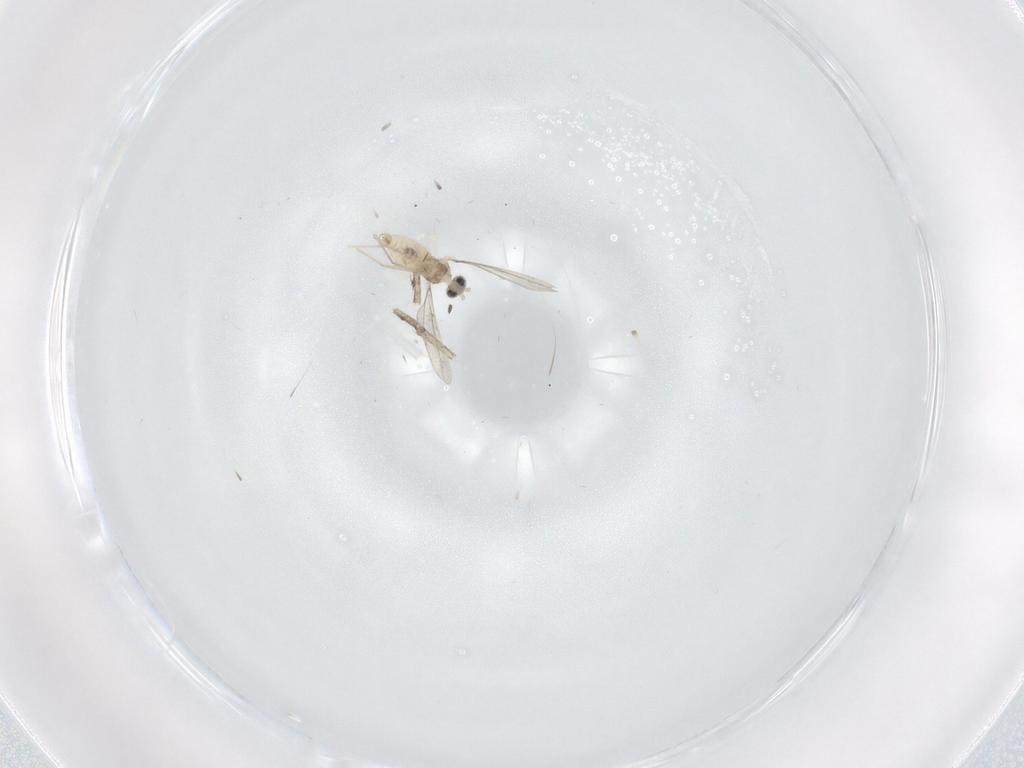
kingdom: Animalia
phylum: Arthropoda
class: Insecta
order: Diptera
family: Cecidomyiidae
